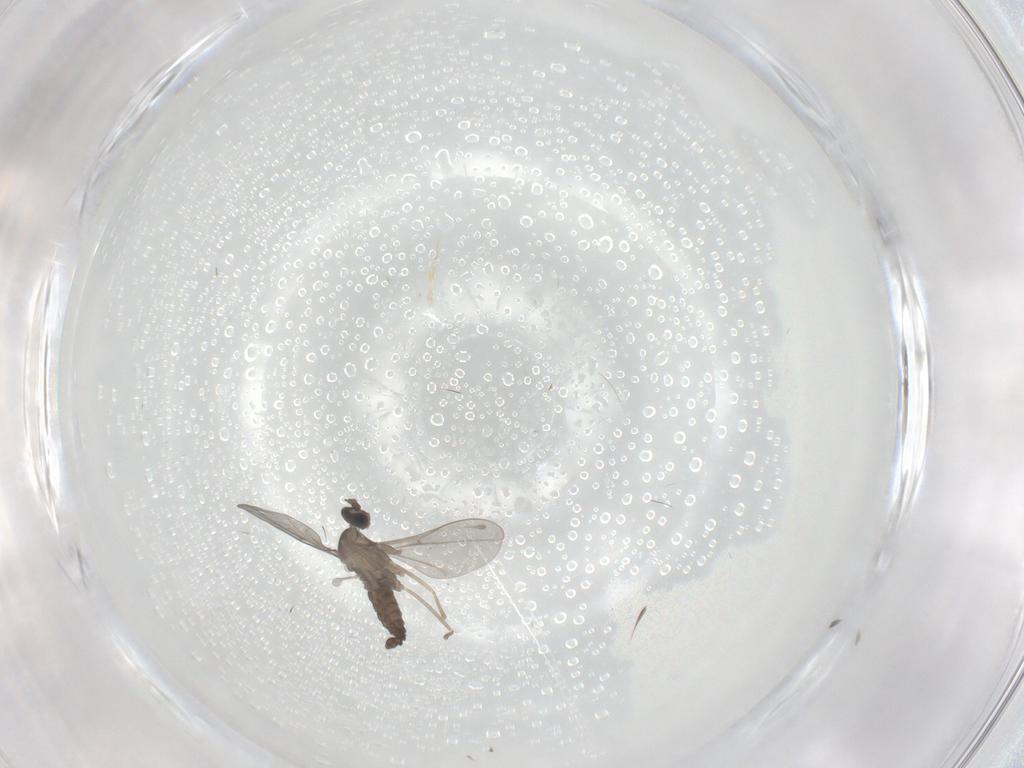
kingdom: Animalia
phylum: Arthropoda
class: Insecta
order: Diptera
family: Sciaridae
